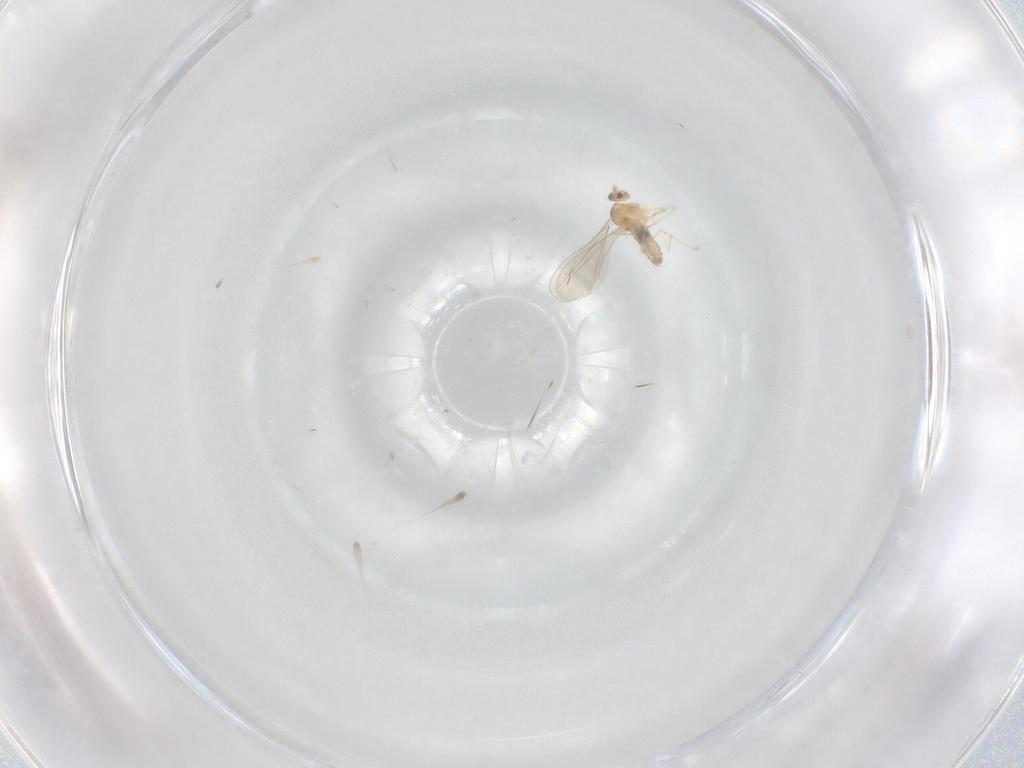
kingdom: Animalia
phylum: Arthropoda
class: Insecta
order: Diptera
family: Cecidomyiidae
